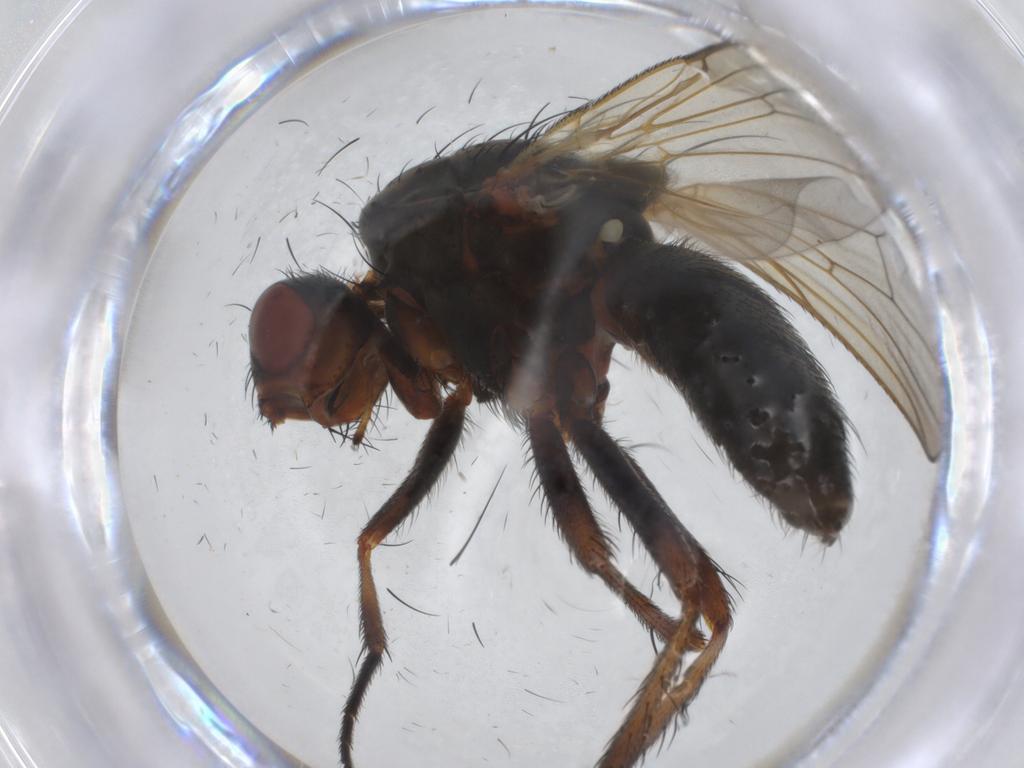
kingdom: Animalia
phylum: Arthropoda
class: Insecta
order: Diptera
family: Anthomyiidae
